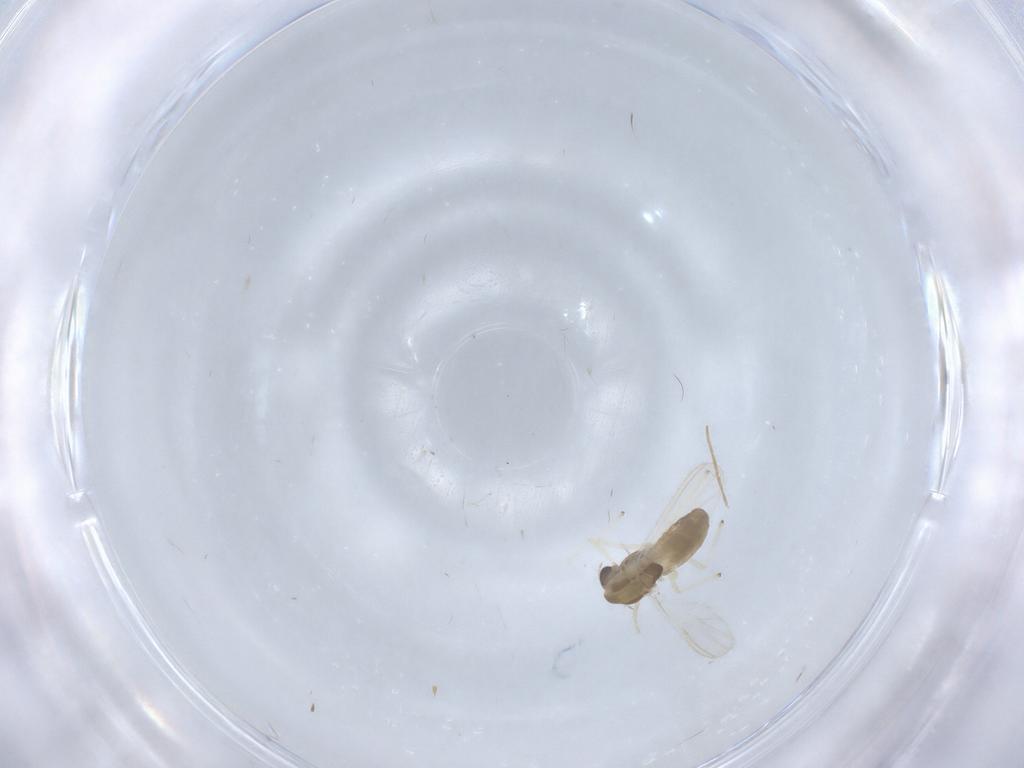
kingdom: Animalia
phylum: Arthropoda
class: Insecta
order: Diptera
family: Chironomidae
